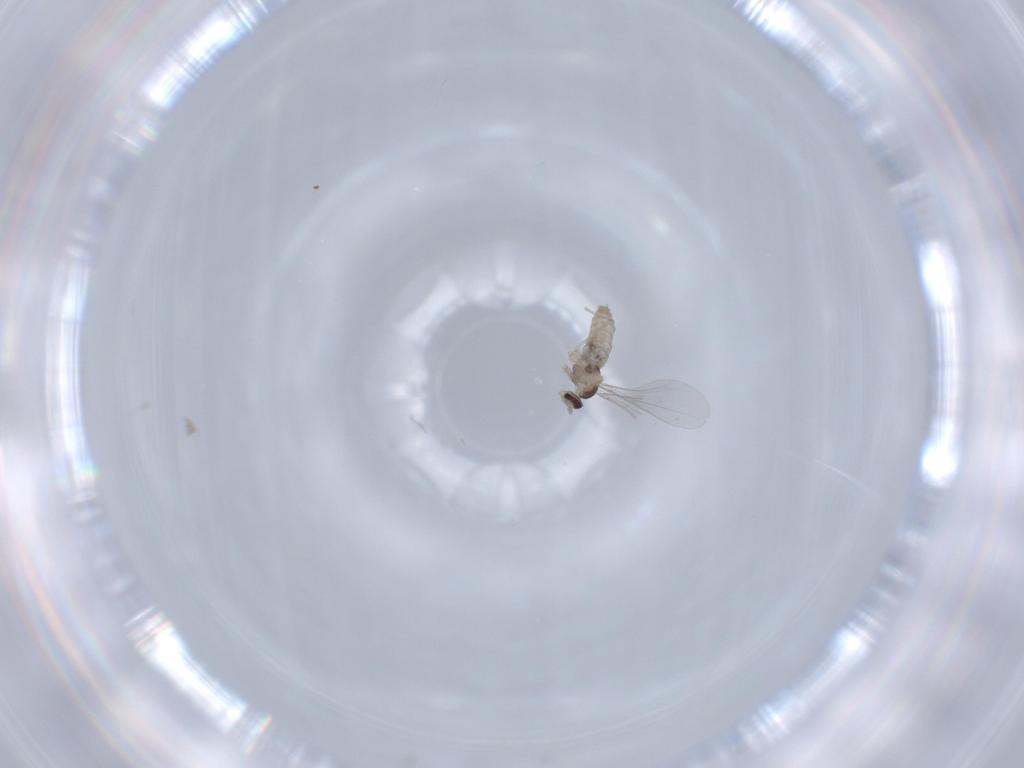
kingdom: Animalia
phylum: Arthropoda
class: Insecta
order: Diptera
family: Cecidomyiidae
